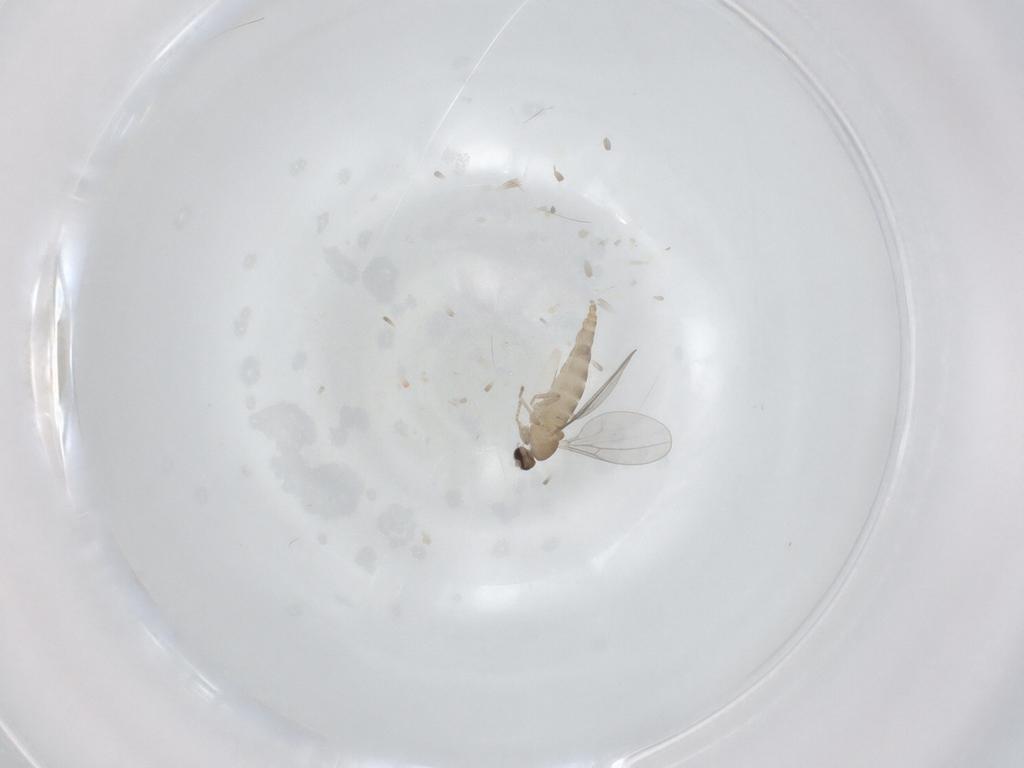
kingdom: Animalia
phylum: Arthropoda
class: Insecta
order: Diptera
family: Cecidomyiidae
